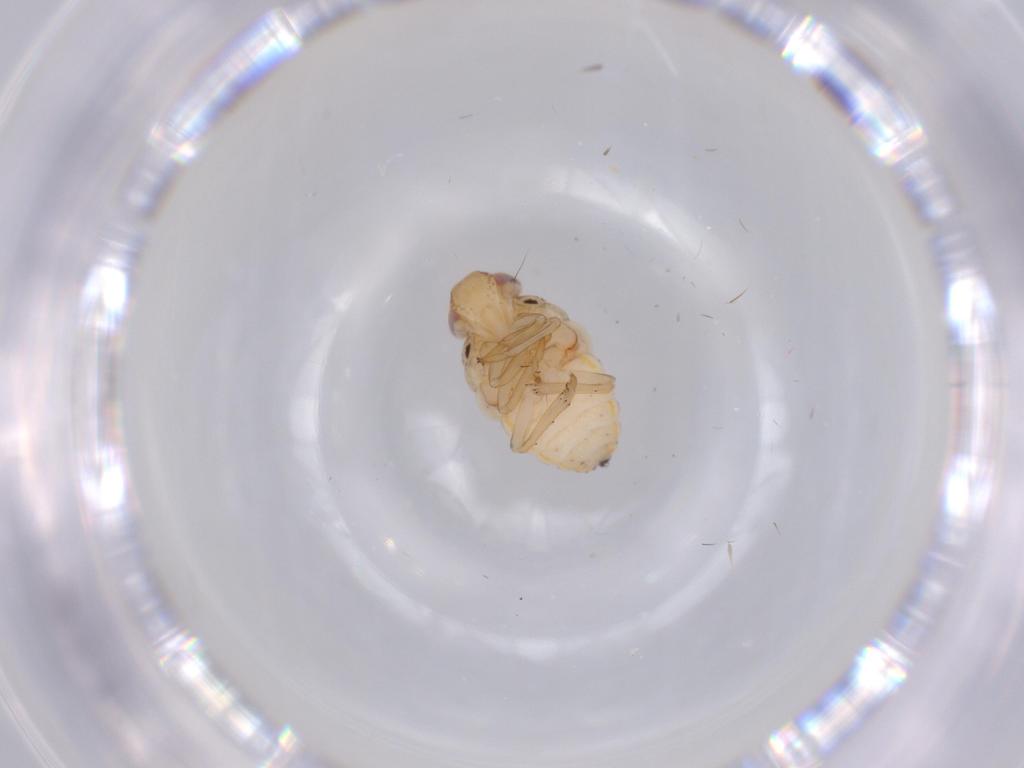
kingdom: Animalia
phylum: Arthropoda
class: Insecta
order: Hemiptera
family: Issidae
